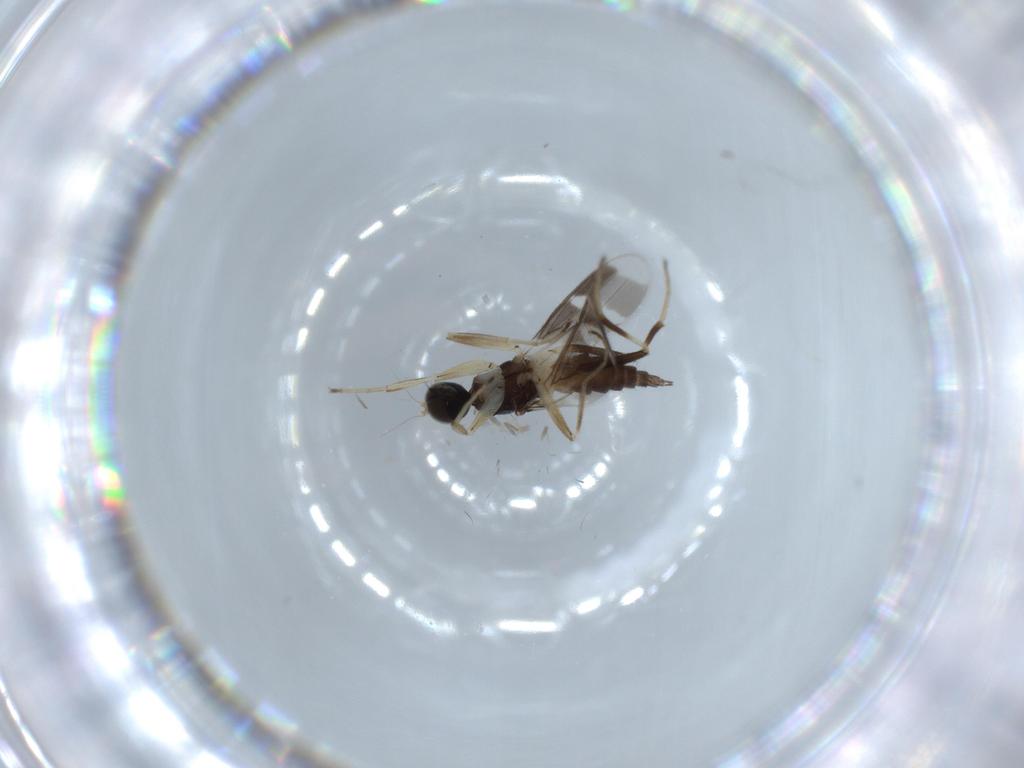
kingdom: Animalia
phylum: Arthropoda
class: Insecta
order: Diptera
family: Hybotidae
